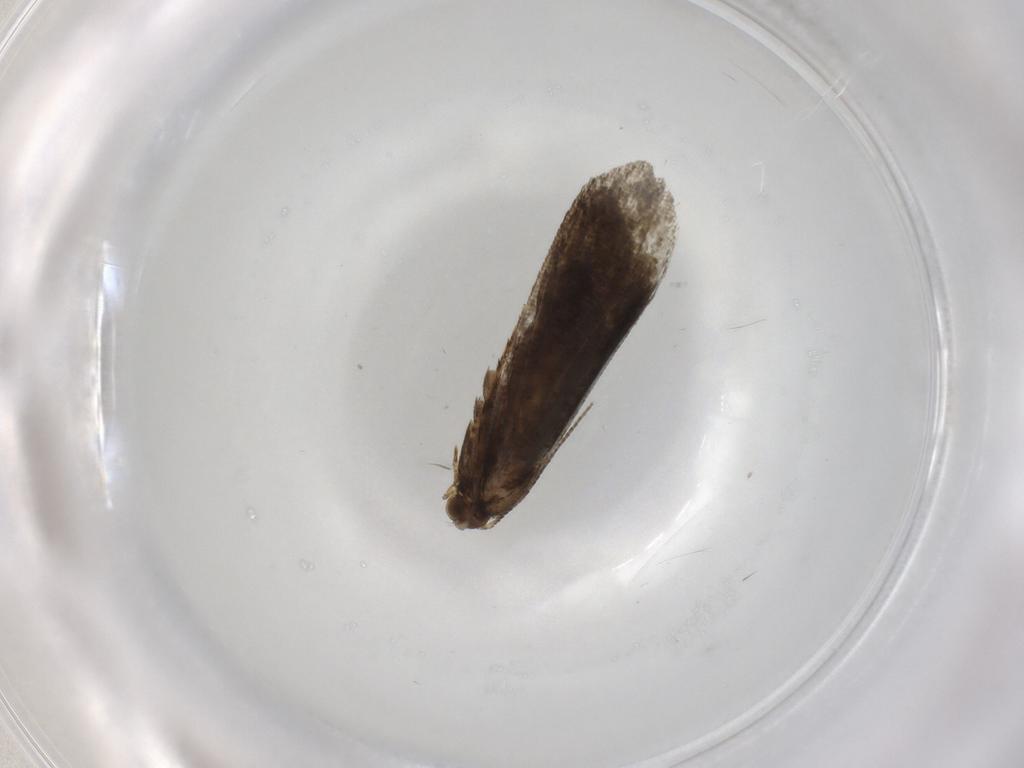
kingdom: Animalia
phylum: Arthropoda
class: Insecta
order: Lepidoptera
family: Crambidae
